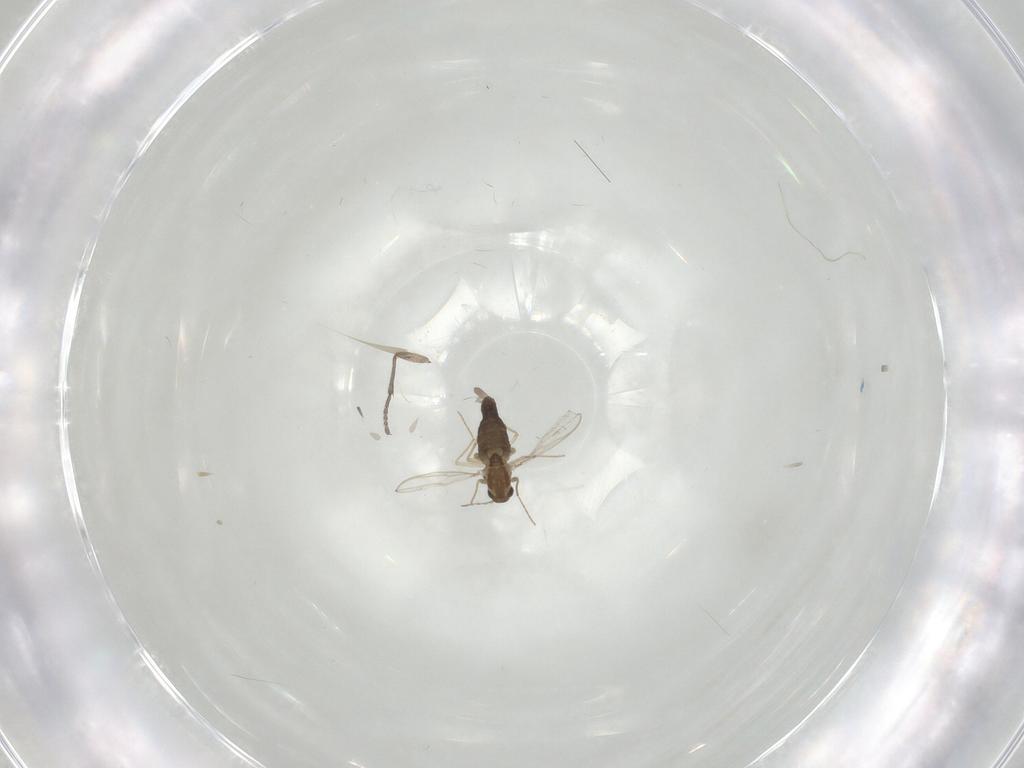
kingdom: Animalia
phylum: Arthropoda
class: Insecta
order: Diptera
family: Sciaridae
